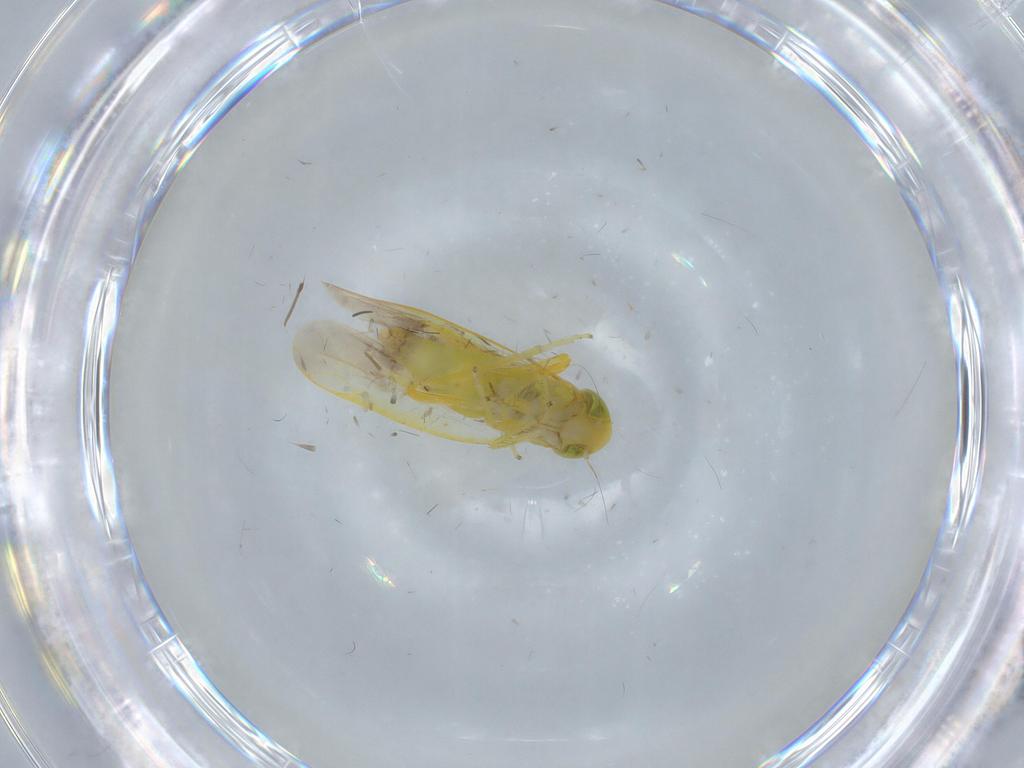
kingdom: Animalia
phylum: Arthropoda
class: Insecta
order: Hemiptera
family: Cicadellidae
